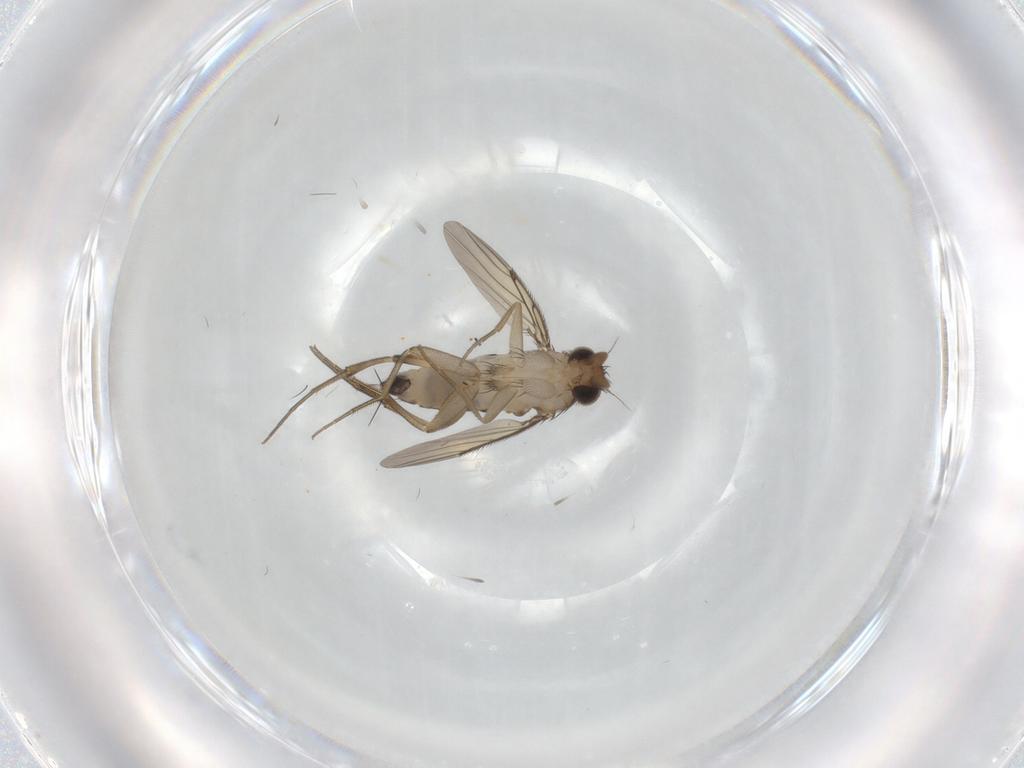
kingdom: Animalia
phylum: Arthropoda
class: Insecta
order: Diptera
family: Phoridae
